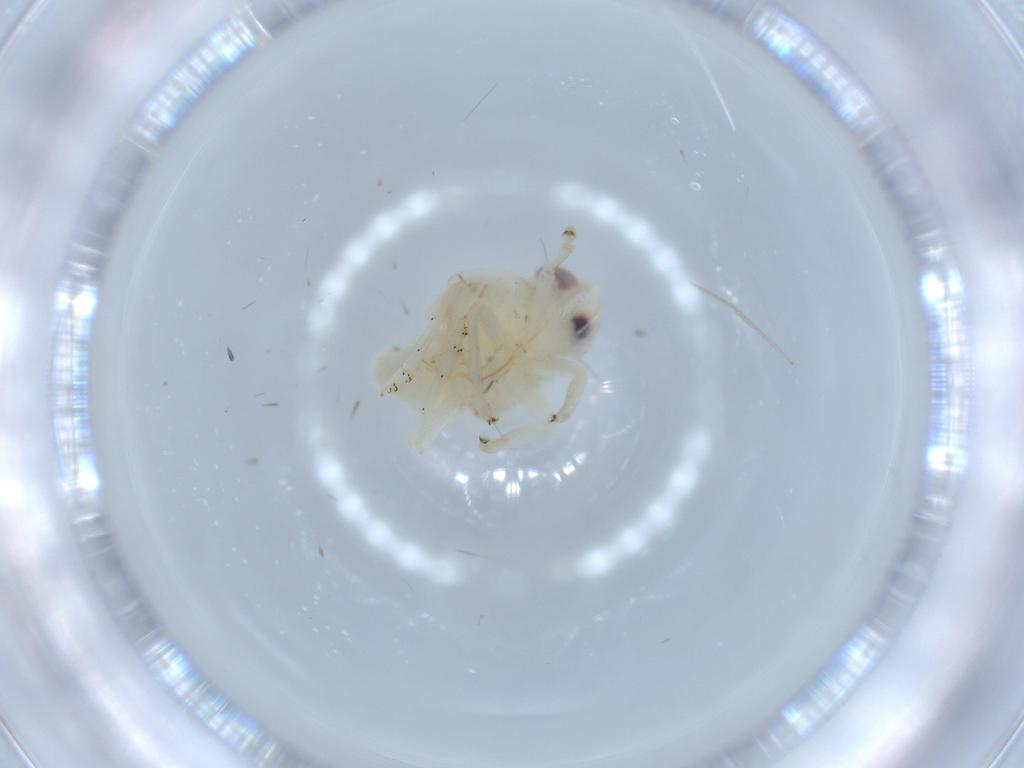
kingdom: Animalia
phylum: Arthropoda
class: Insecta
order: Hemiptera
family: Nogodinidae
